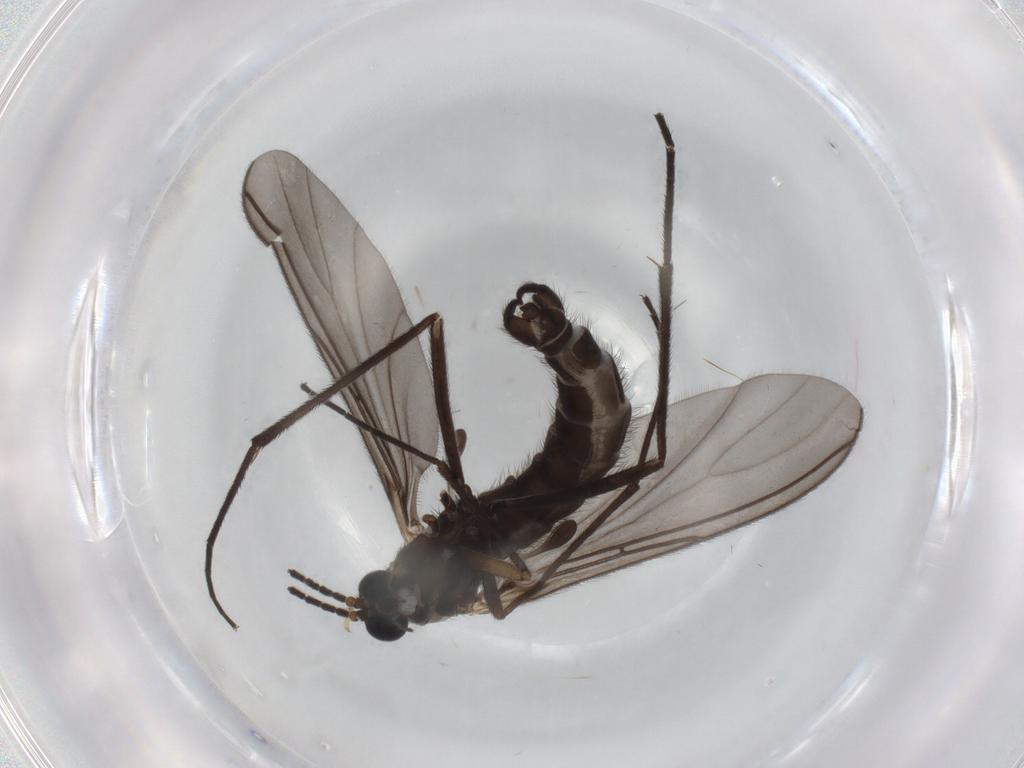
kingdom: Animalia
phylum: Arthropoda
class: Insecta
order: Diptera
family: Sciaridae
